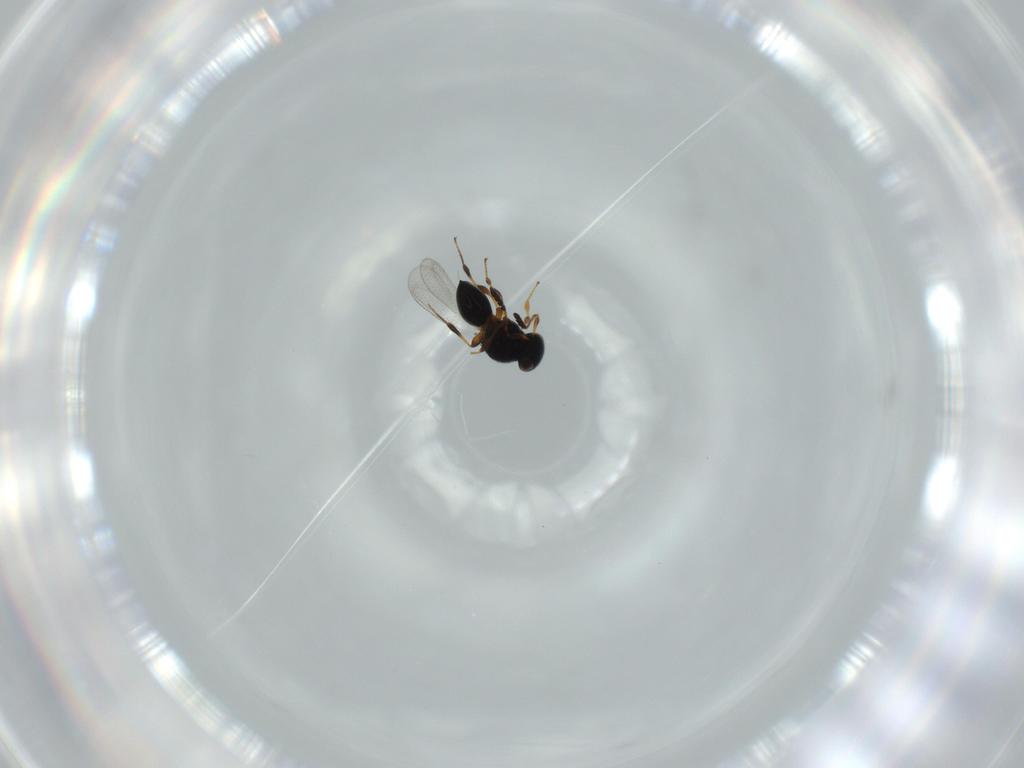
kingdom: Animalia
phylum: Arthropoda
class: Insecta
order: Hymenoptera
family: Platygastridae
